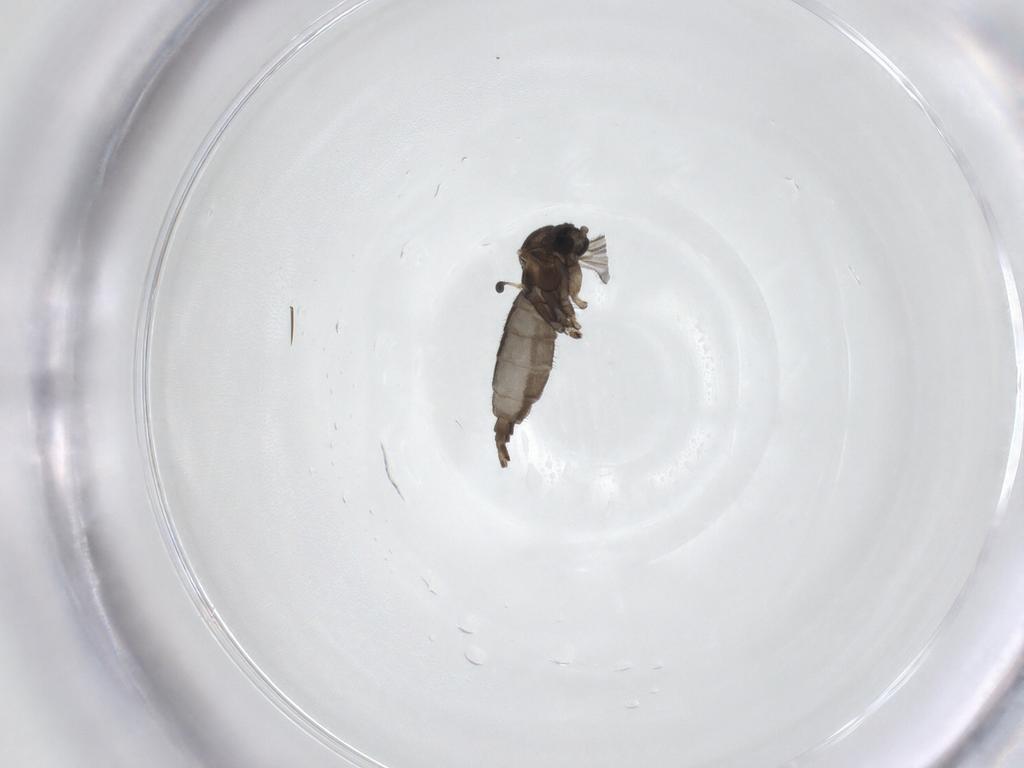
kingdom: Animalia
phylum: Arthropoda
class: Insecta
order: Diptera
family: Sciaridae
